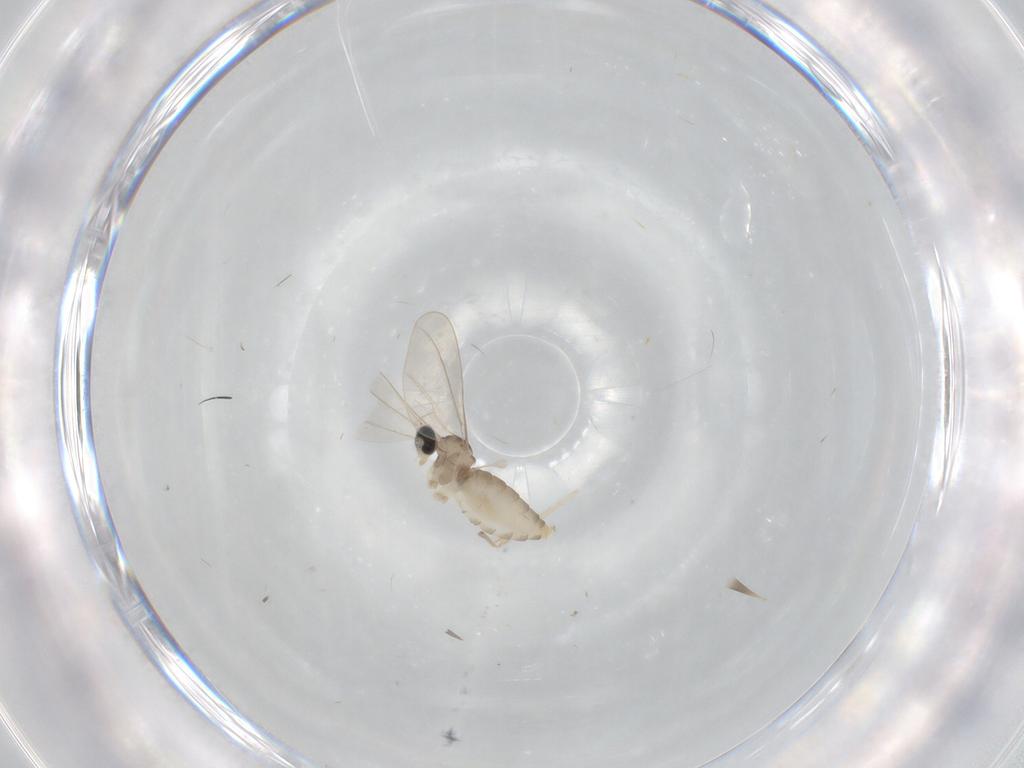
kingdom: Animalia
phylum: Arthropoda
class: Insecta
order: Diptera
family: Chironomidae
